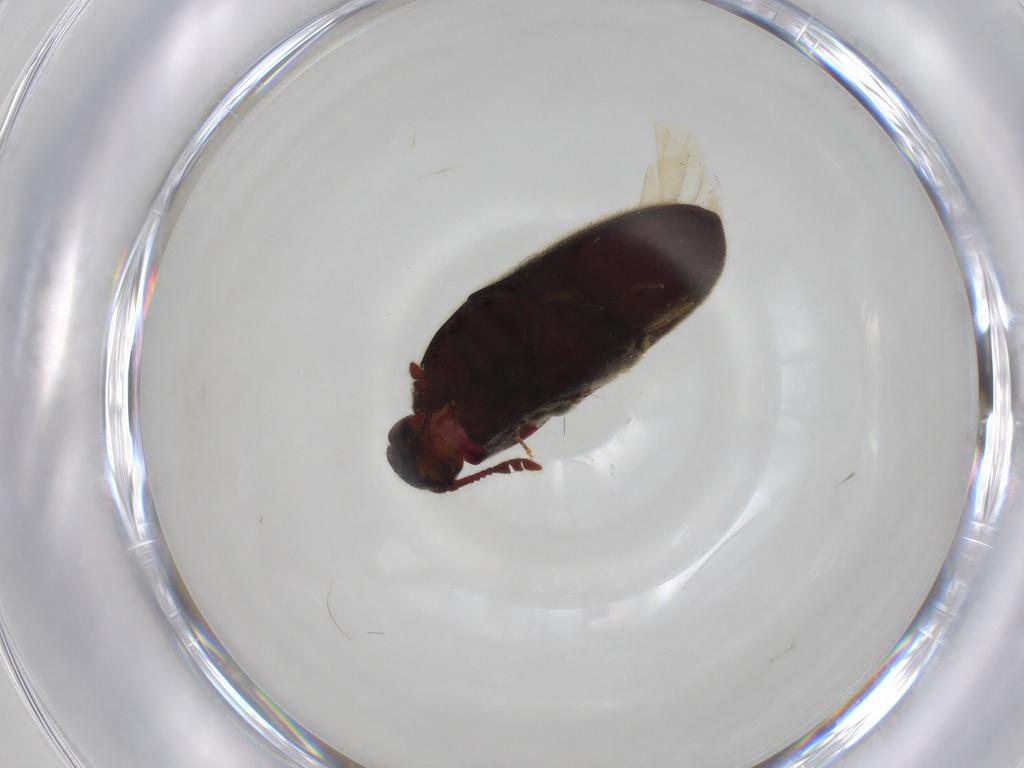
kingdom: Animalia
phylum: Arthropoda
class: Insecta
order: Coleoptera
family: Throscidae
